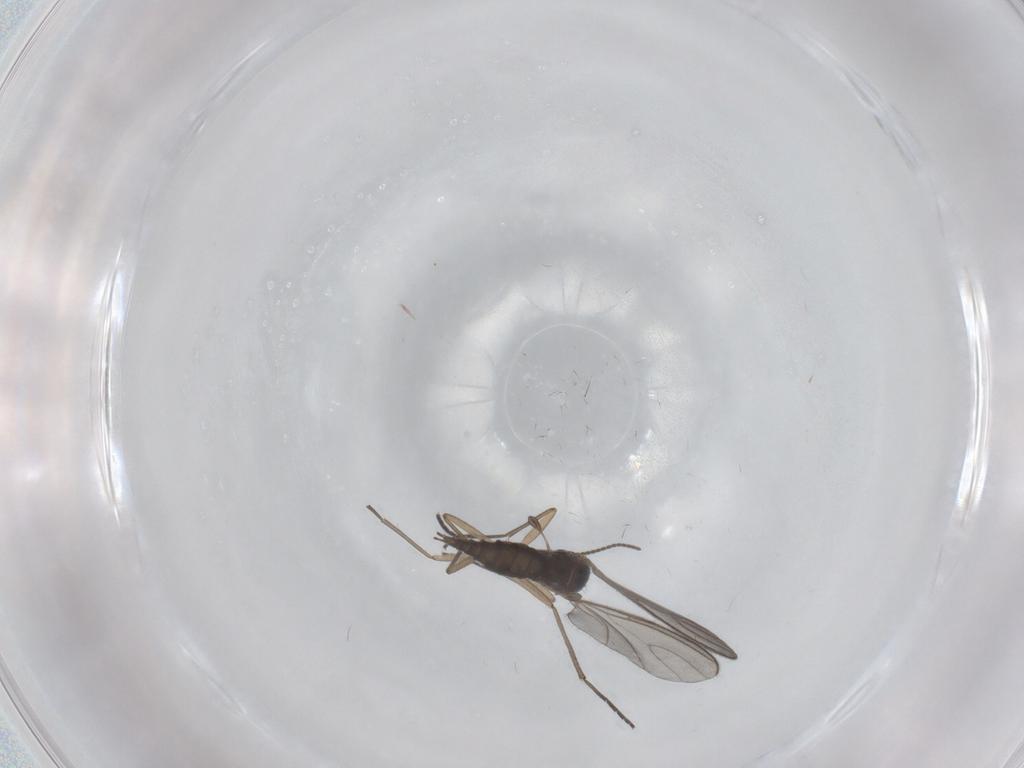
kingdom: Animalia
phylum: Arthropoda
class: Insecta
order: Diptera
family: Sciaridae
